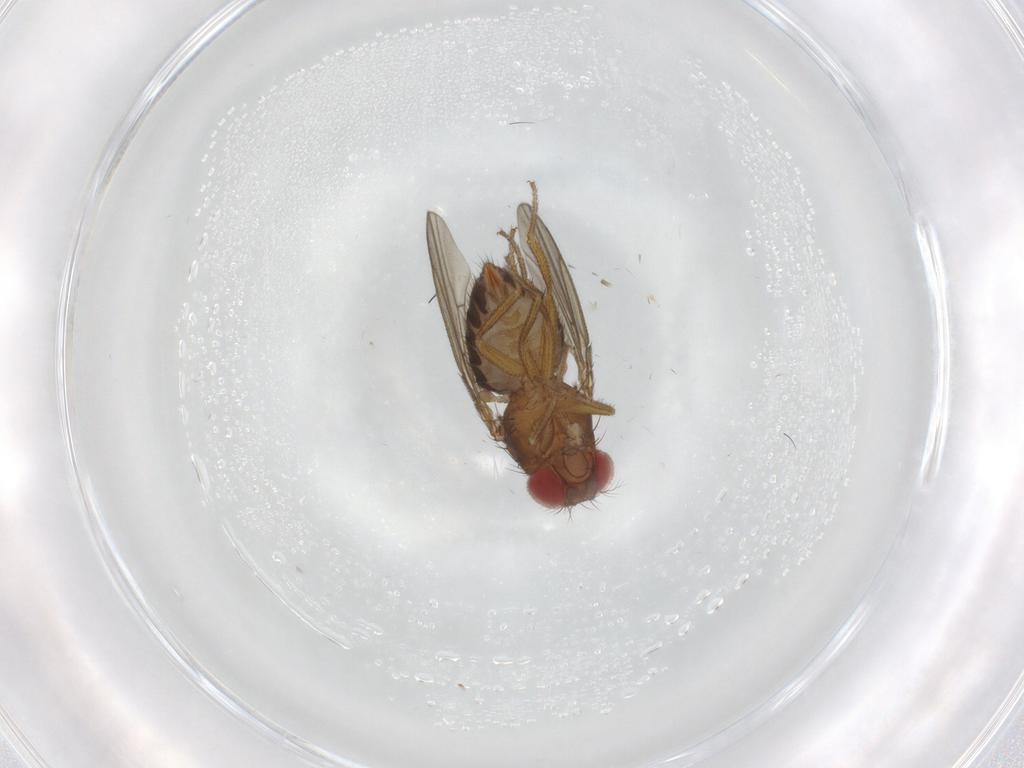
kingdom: Animalia
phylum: Arthropoda
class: Insecta
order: Diptera
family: Drosophilidae
